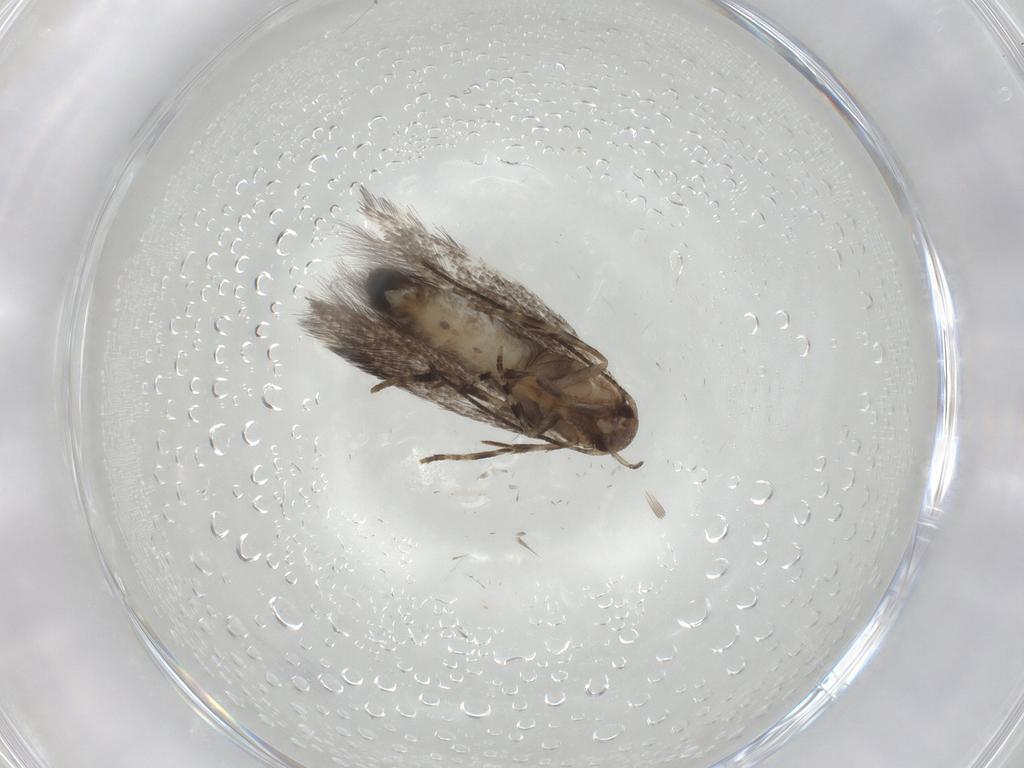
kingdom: Animalia
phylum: Arthropoda
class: Insecta
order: Lepidoptera
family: Elachistidae
